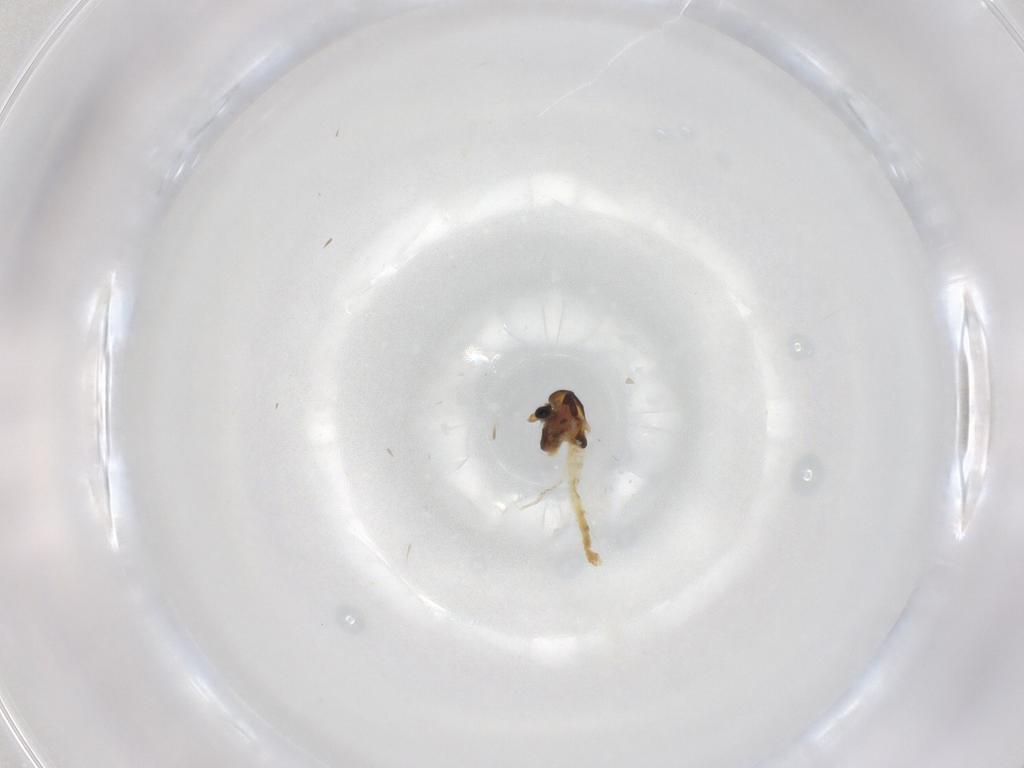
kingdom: Animalia
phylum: Arthropoda
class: Insecta
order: Diptera
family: Chironomidae
